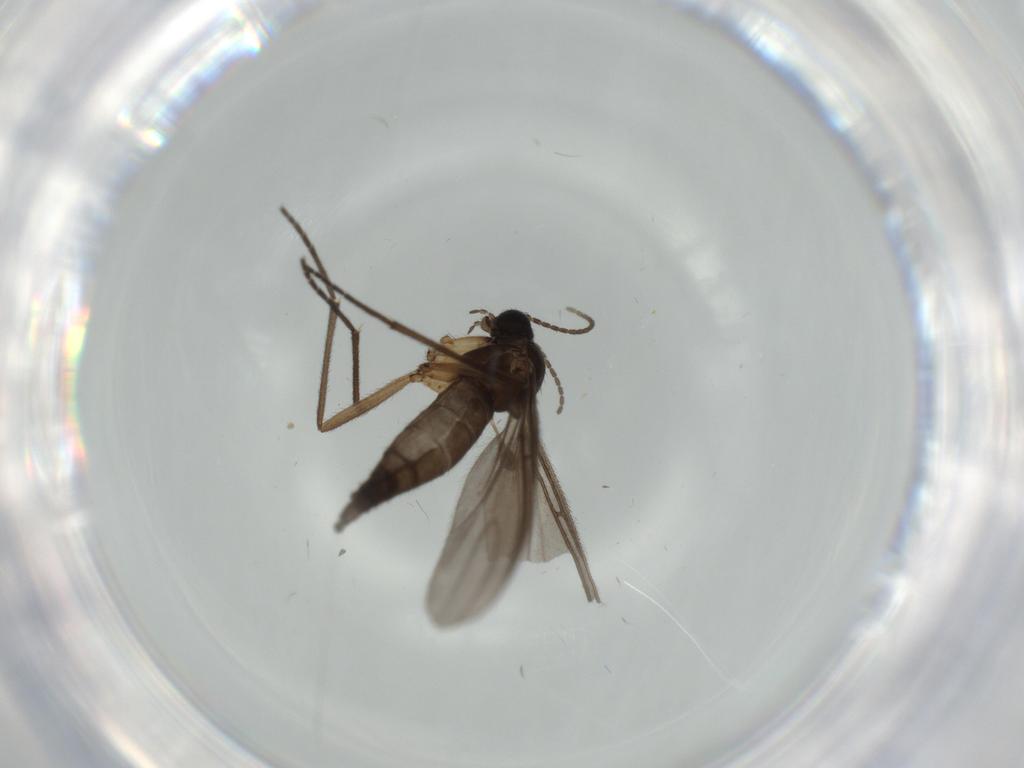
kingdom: Animalia
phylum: Arthropoda
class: Insecta
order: Diptera
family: Sciaridae
